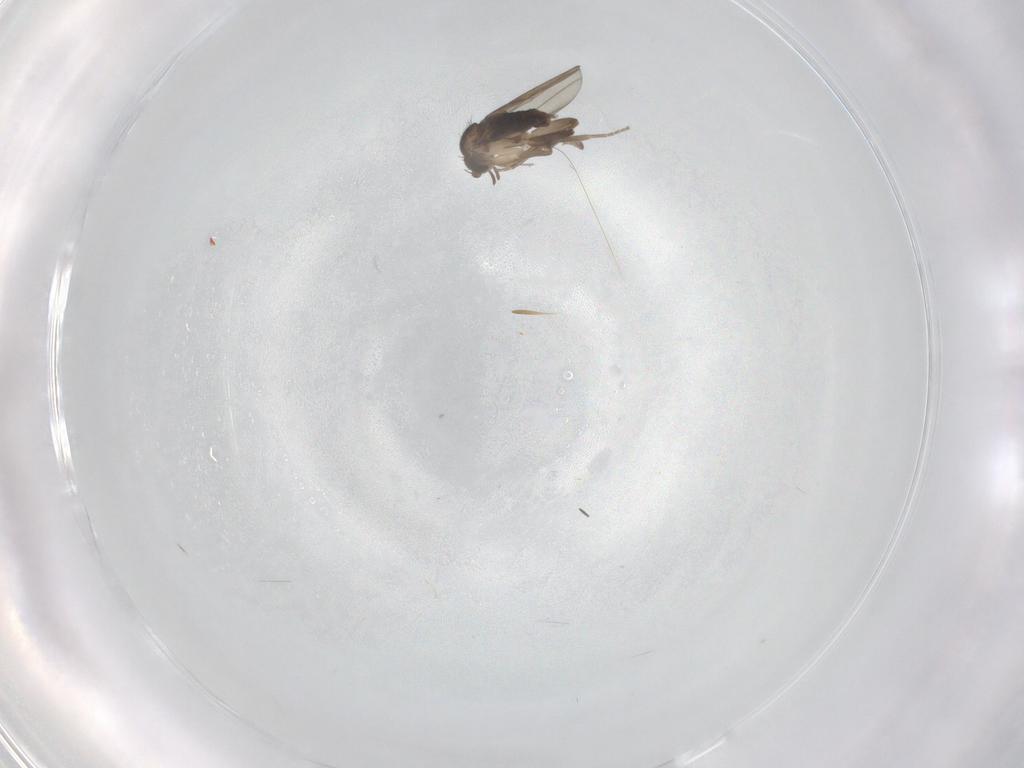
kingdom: Animalia
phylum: Arthropoda
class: Insecta
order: Diptera
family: Phoridae
